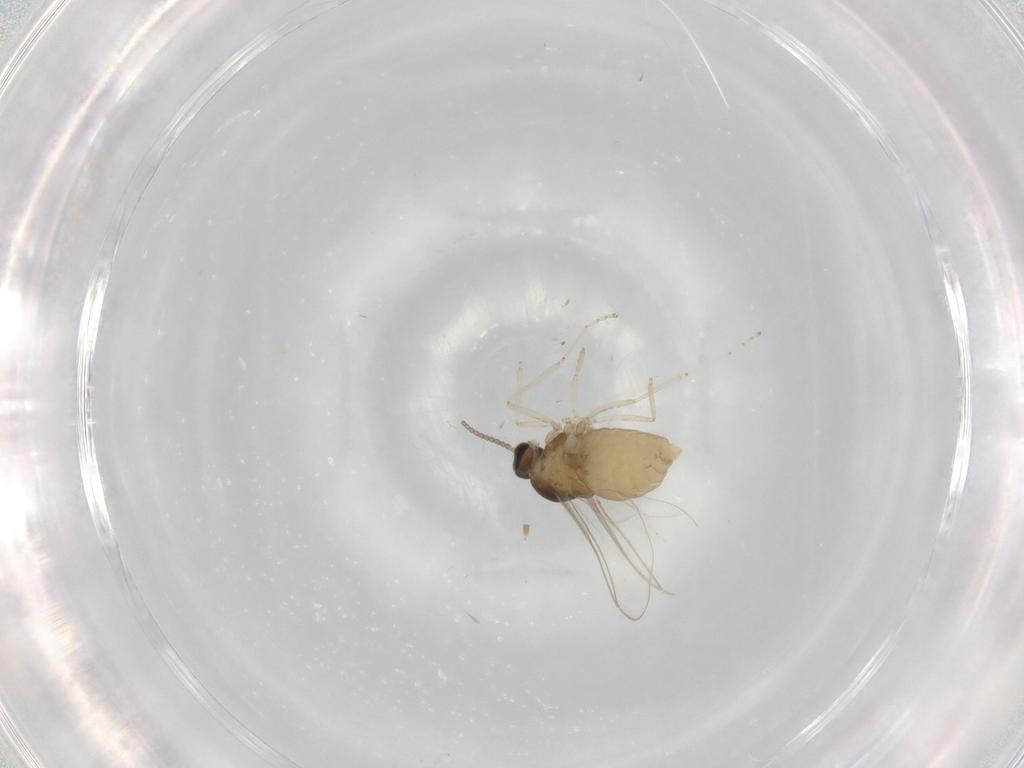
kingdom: Animalia
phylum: Arthropoda
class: Insecta
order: Diptera
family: Cecidomyiidae
